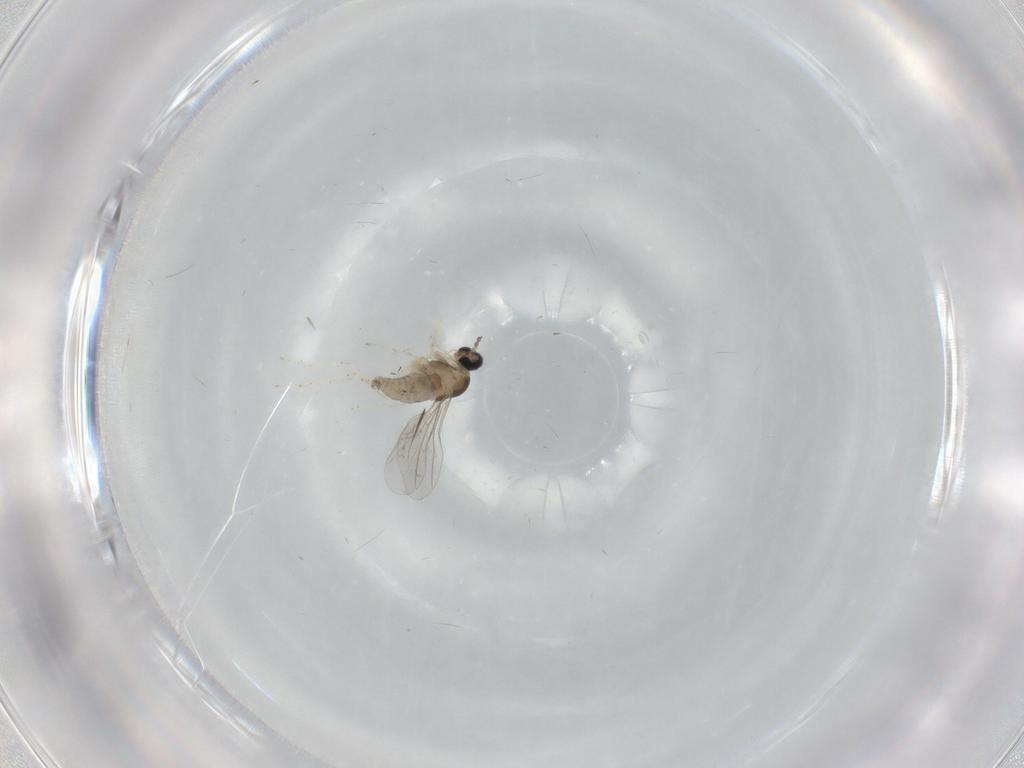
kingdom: Animalia
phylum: Arthropoda
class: Insecta
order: Diptera
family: Cecidomyiidae
